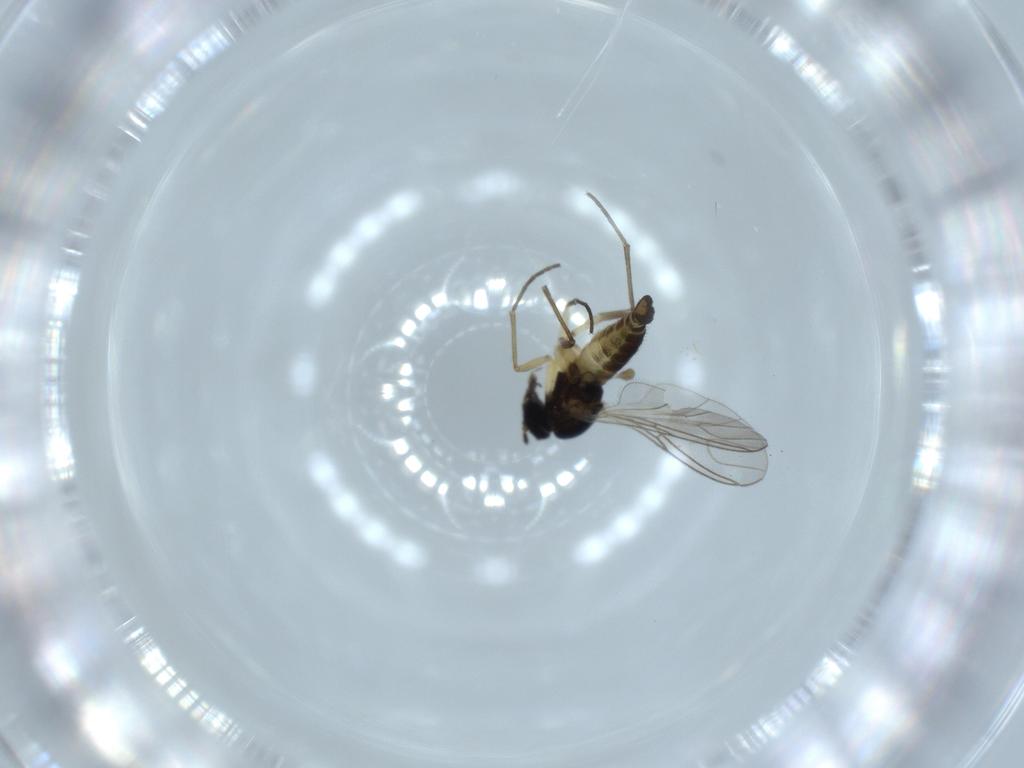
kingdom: Animalia
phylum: Arthropoda
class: Insecta
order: Diptera
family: Sciaridae
